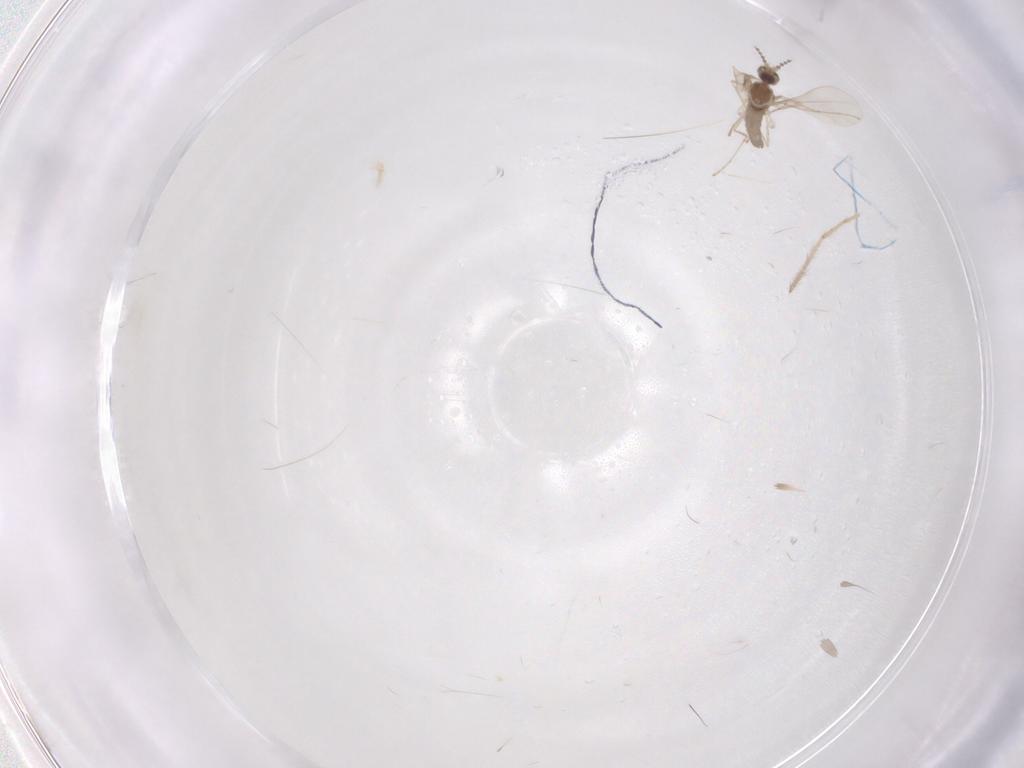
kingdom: Animalia
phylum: Arthropoda
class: Insecta
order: Diptera
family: Cecidomyiidae
